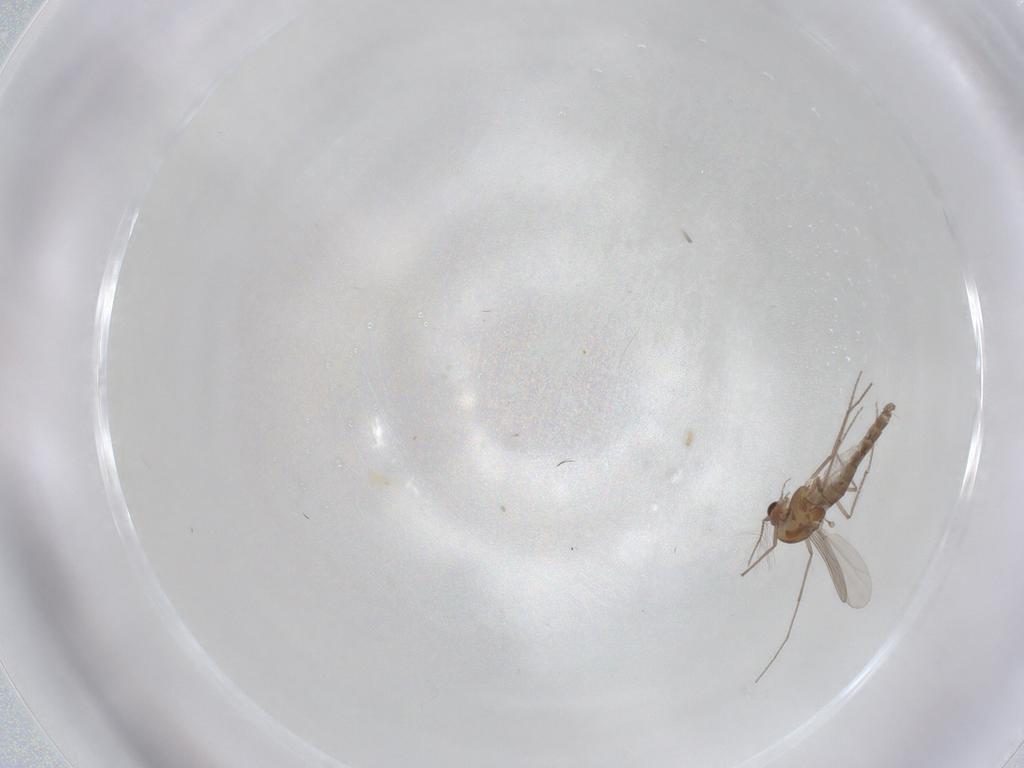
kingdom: Animalia
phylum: Arthropoda
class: Insecta
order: Diptera
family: Chironomidae
